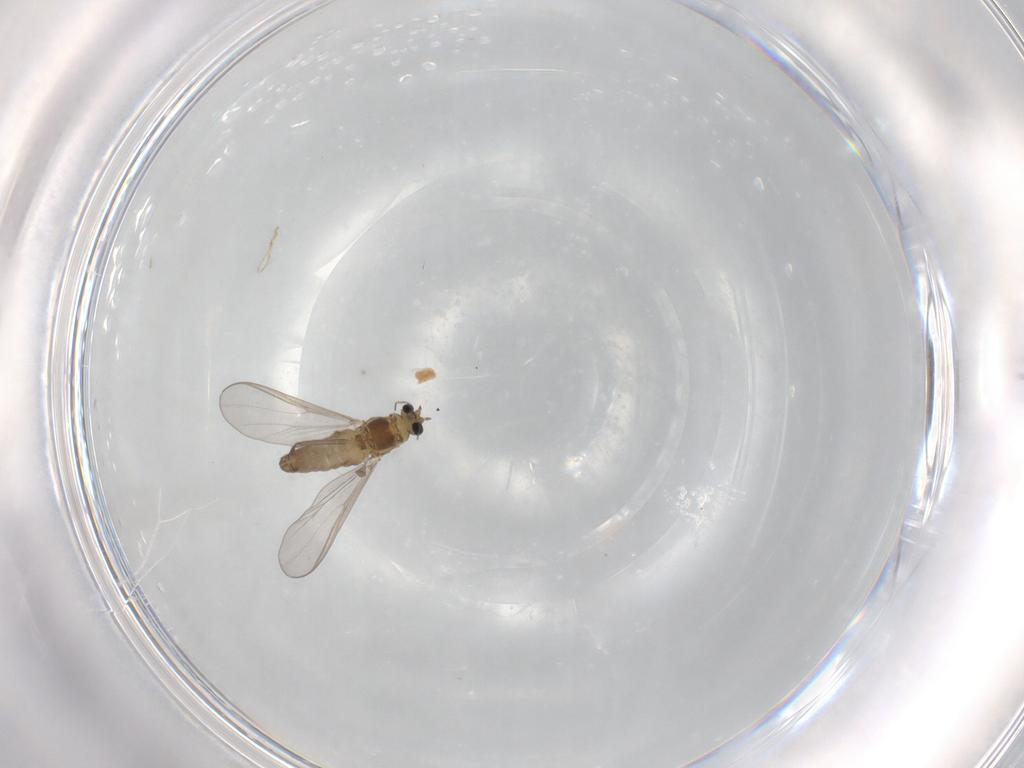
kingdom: Animalia
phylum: Arthropoda
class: Insecta
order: Diptera
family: Chironomidae
